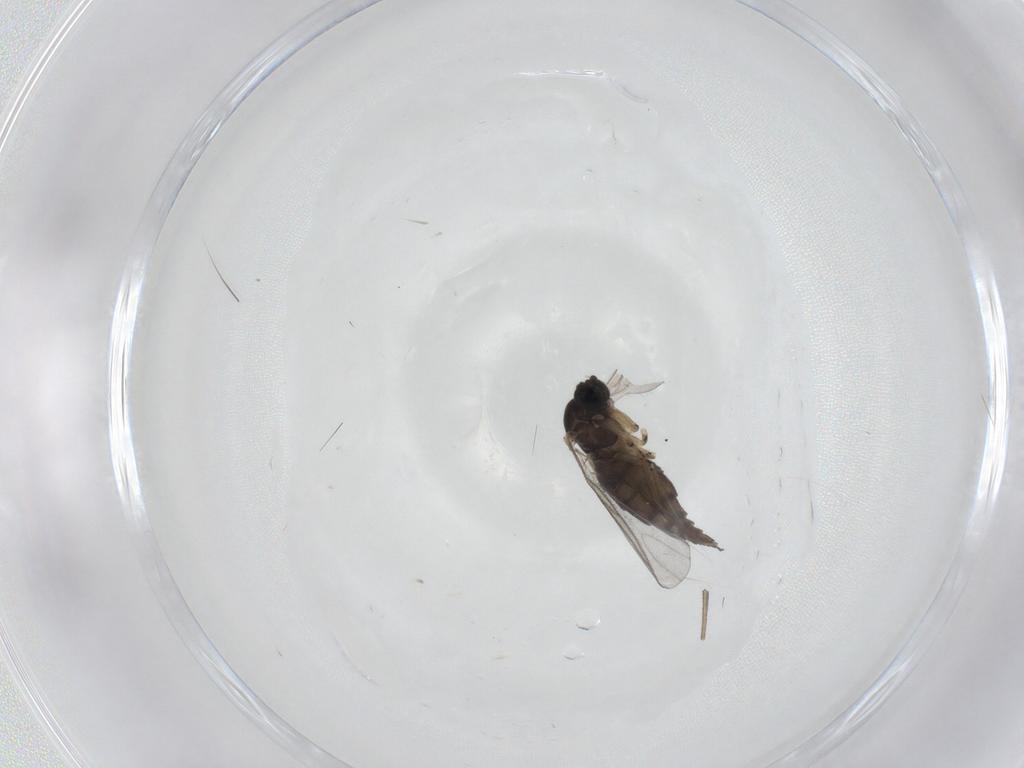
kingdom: Animalia
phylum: Arthropoda
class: Insecta
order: Diptera
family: Sciaridae
